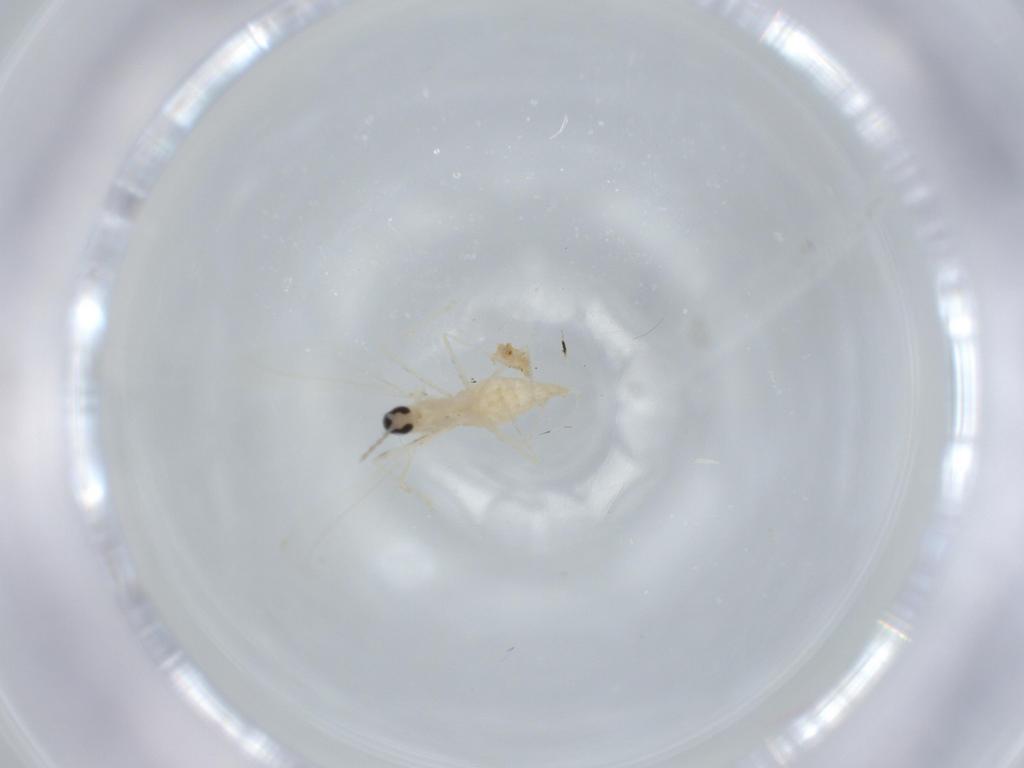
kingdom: Animalia
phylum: Arthropoda
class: Insecta
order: Diptera
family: Cecidomyiidae
